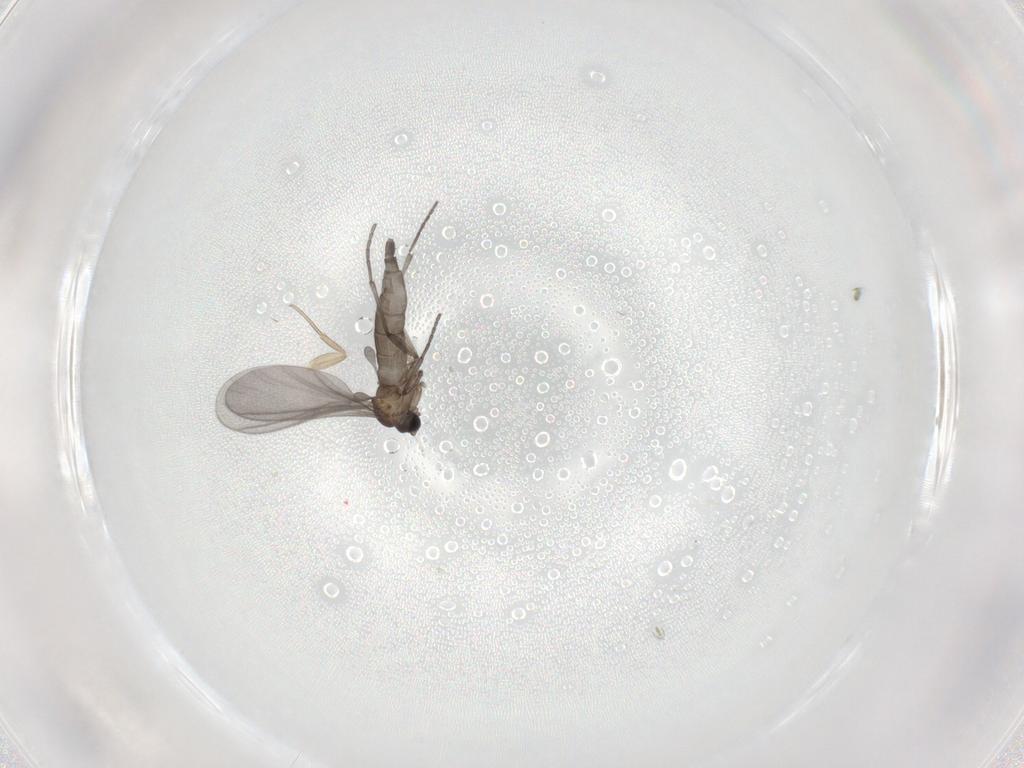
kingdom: Animalia
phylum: Arthropoda
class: Insecta
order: Diptera
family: Sciaridae
